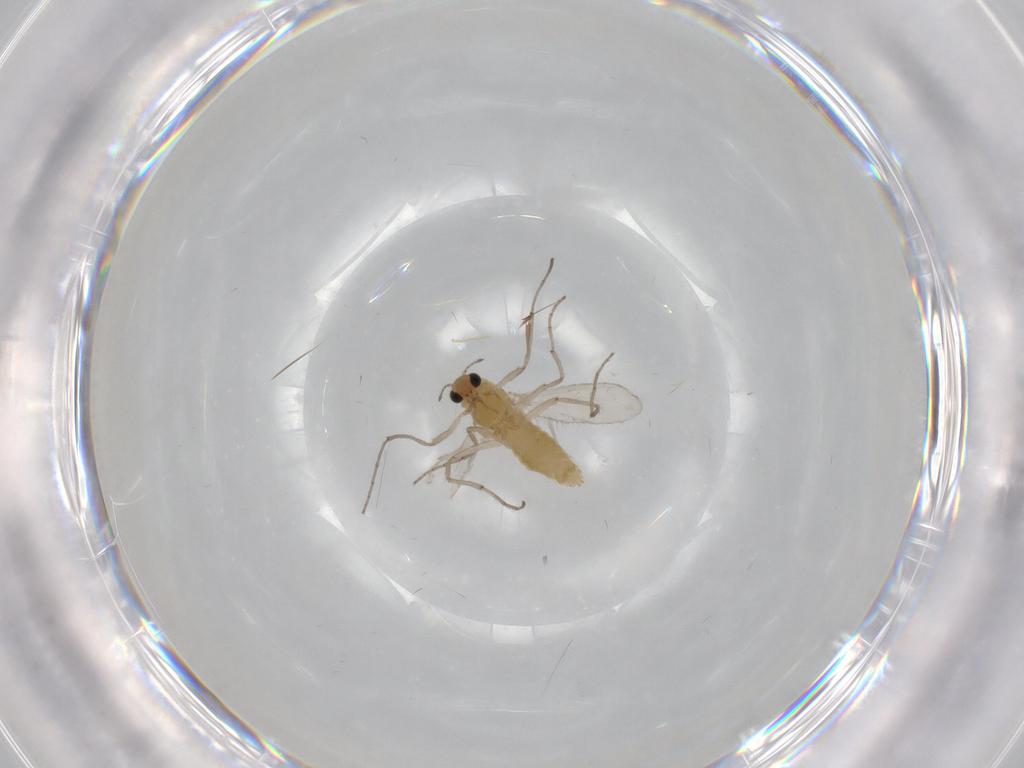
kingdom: Animalia
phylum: Arthropoda
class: Insecta
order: Diptera
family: Chironomidae
